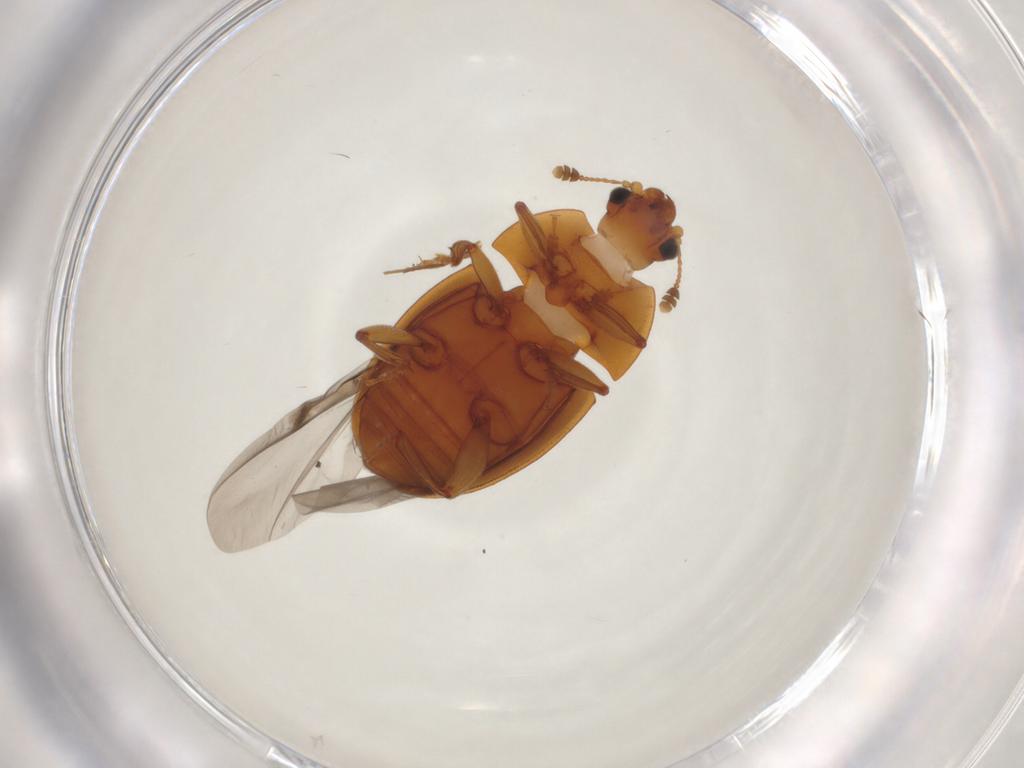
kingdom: Animalia
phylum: Arthropoda
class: Insecta
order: Coleoptera
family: Nitidulidae
